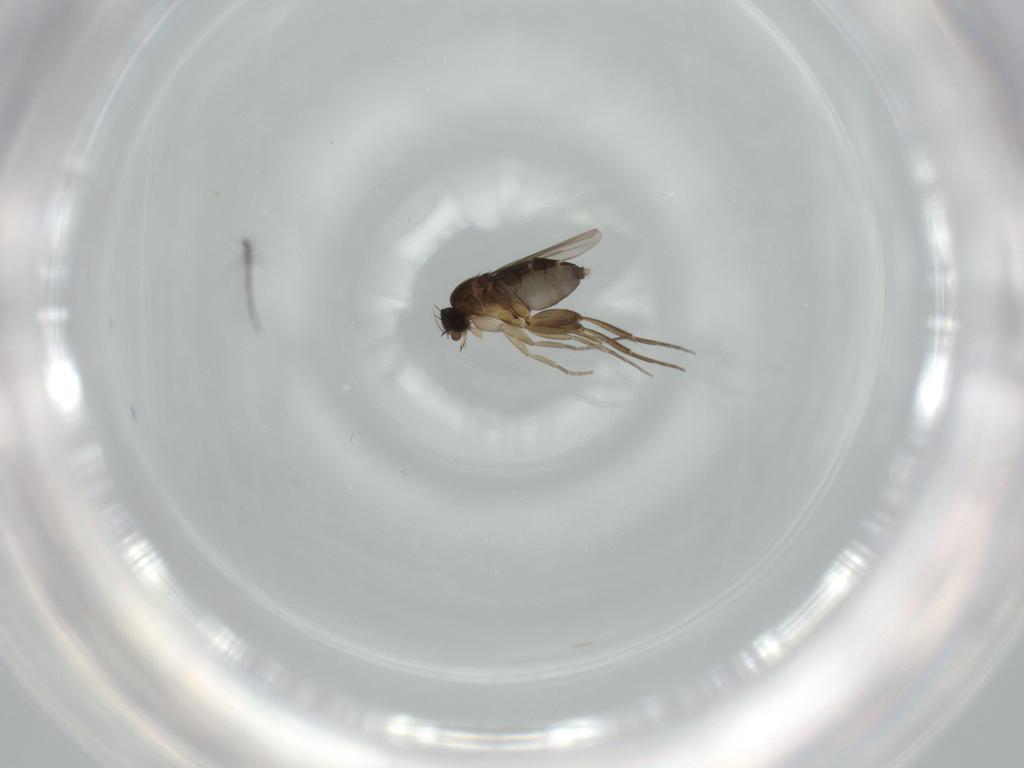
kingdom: Animalia
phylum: Arthropoda
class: Insecta
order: Diptera
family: Phoridae
